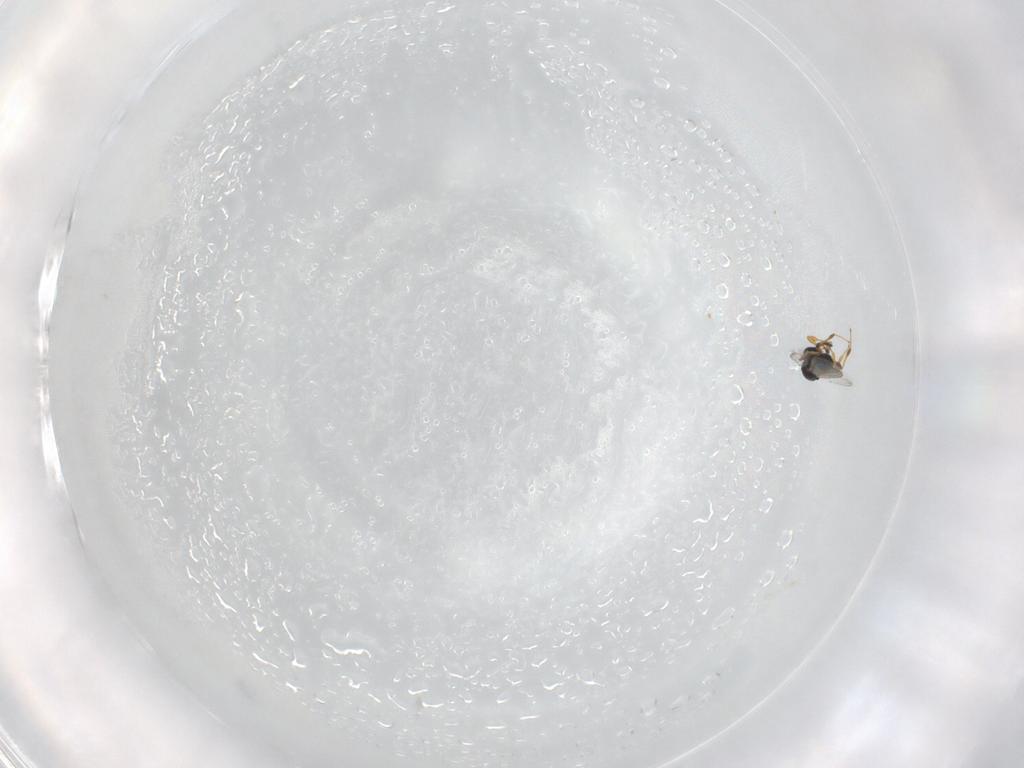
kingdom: Animalia
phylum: Arthropoda
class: Insecta
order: Hymenoptera
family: Platygastridae
